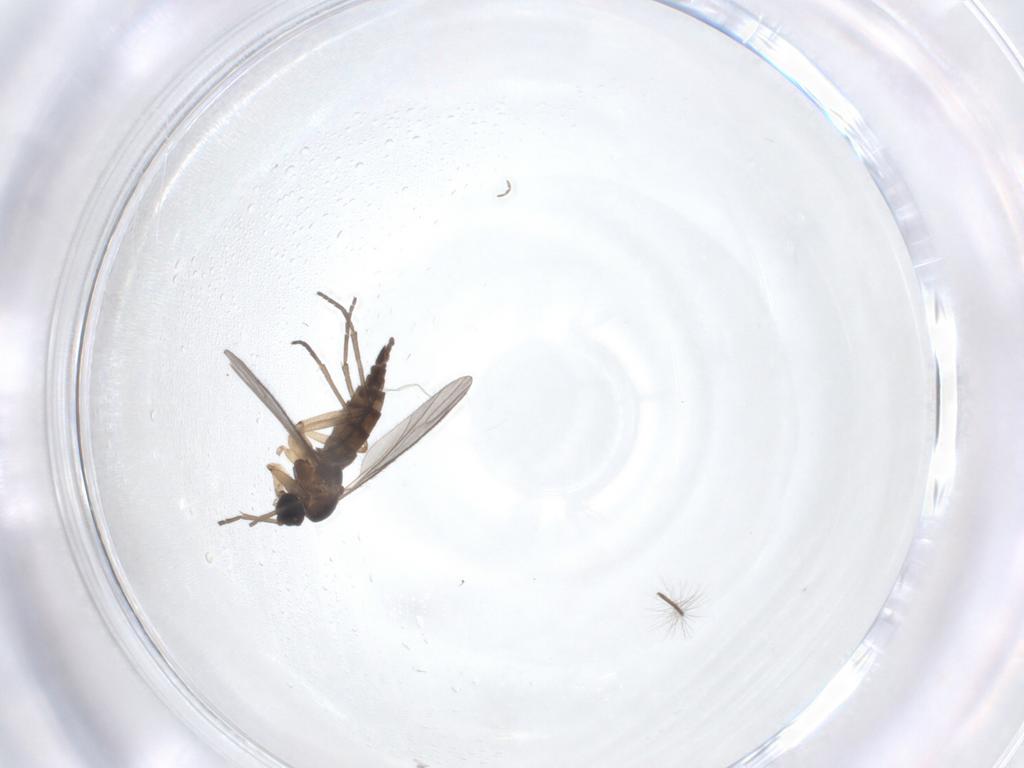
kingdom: Animalia
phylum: Arthropoda
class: Insecta
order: Diptera
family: Sciaridae
